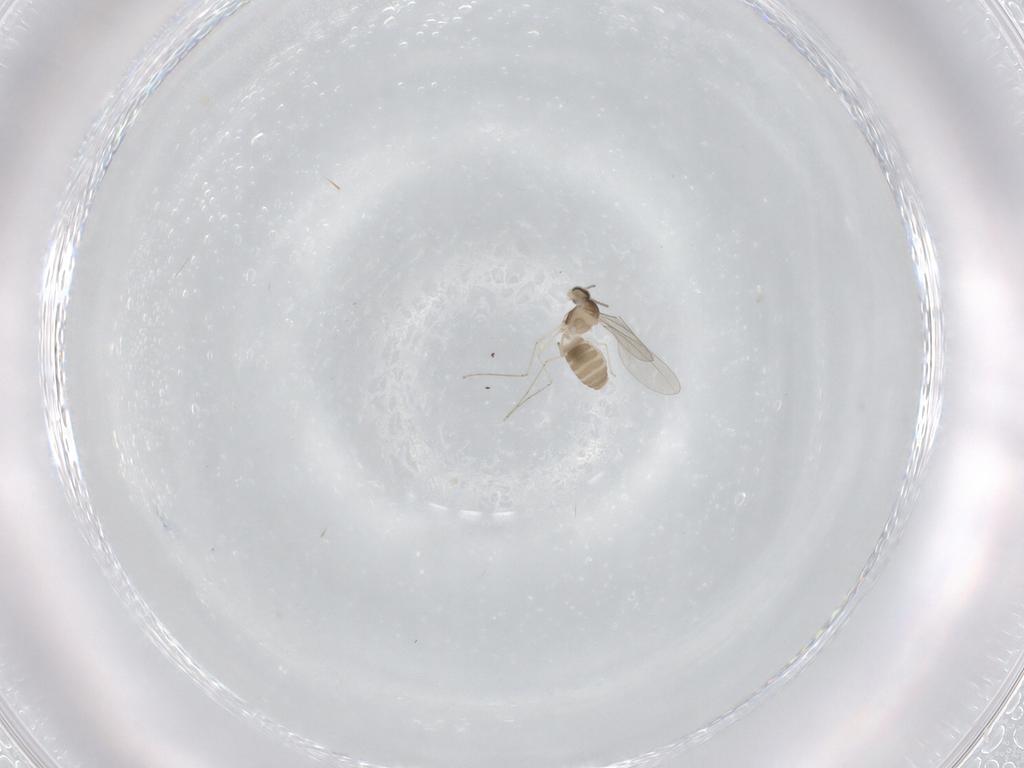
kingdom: Animalia
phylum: Arthropoda
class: Insecta
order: Diptera
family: Cecidomyiidae
